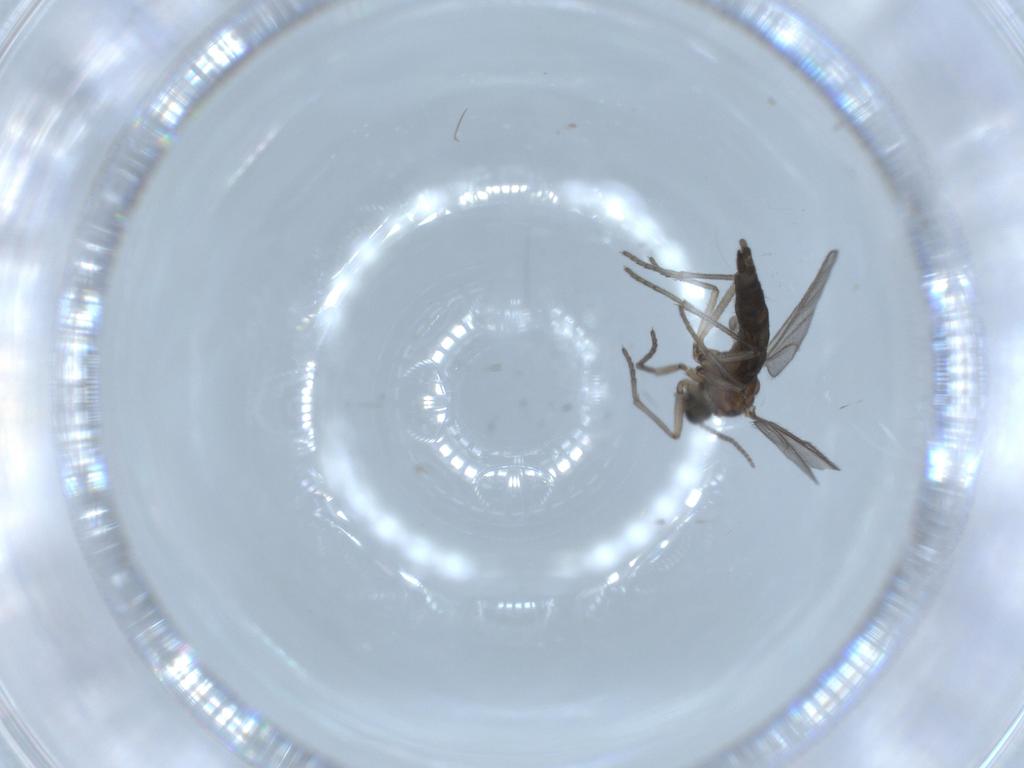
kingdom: Animalia
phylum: Arthropoda
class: Insecta
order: Diptera
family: Sciaridae
